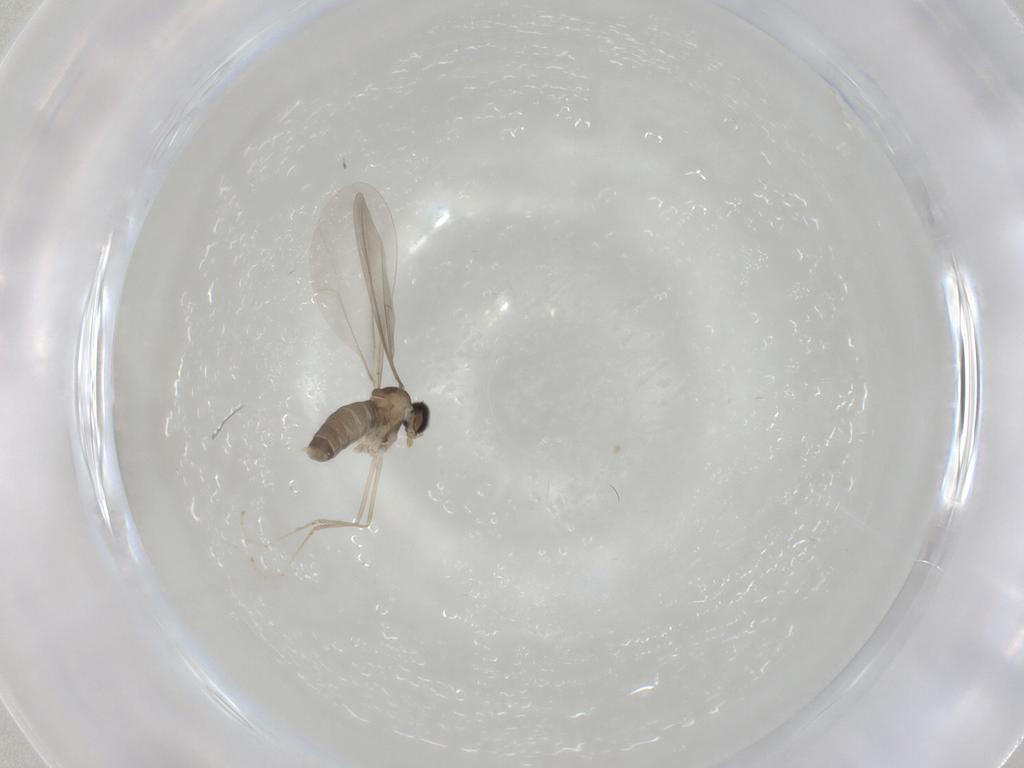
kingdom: Animalia
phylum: Arthropoda
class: Insecta
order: Diptera
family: Cecidomyiidae
